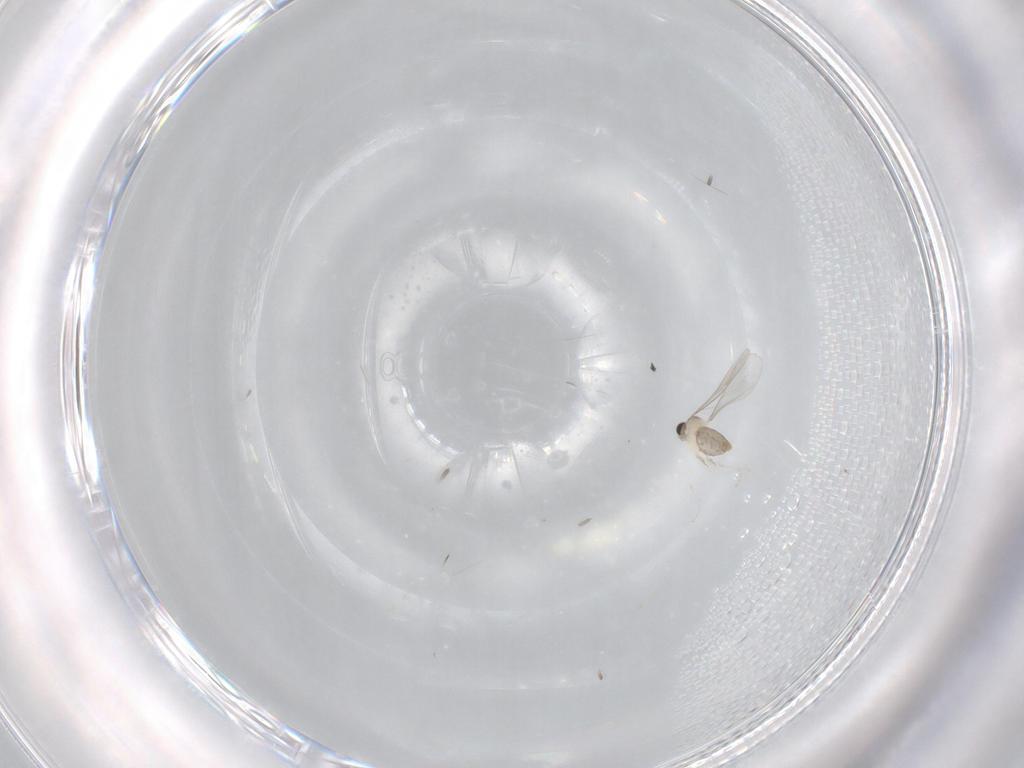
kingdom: Animalia
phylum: Arthropoda
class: Insecta
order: Diptera
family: Cecidomyiidae
